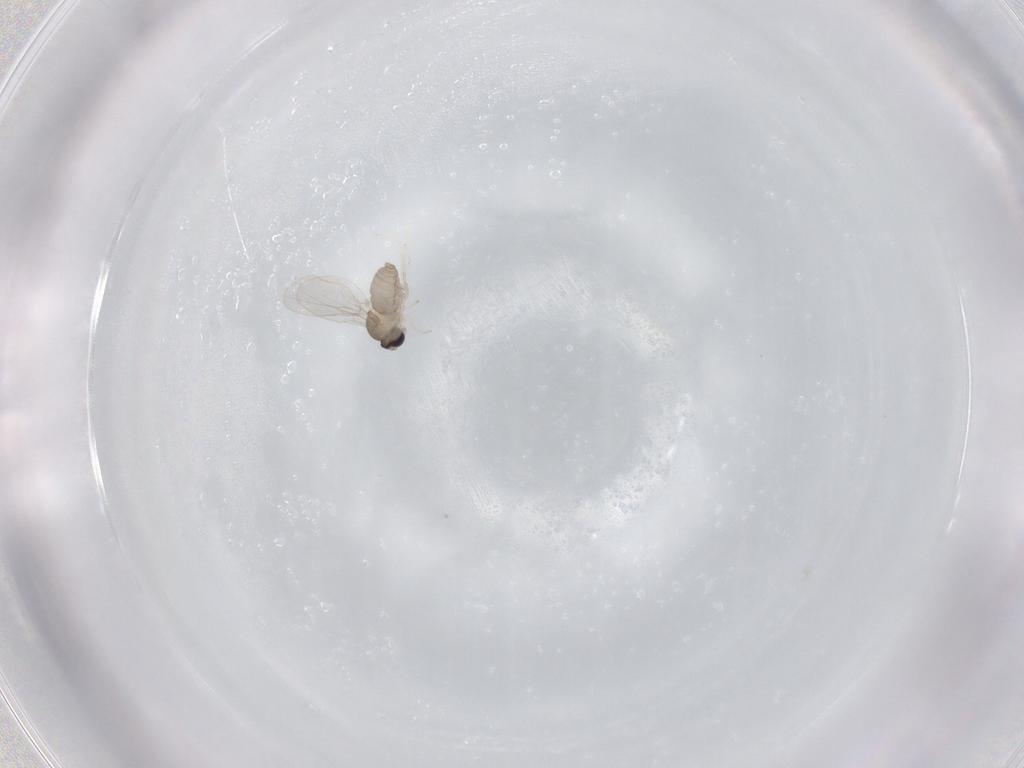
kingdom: Animalia
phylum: Arthropoda
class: Insecta
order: Diptera
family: Cecidomyiidae
